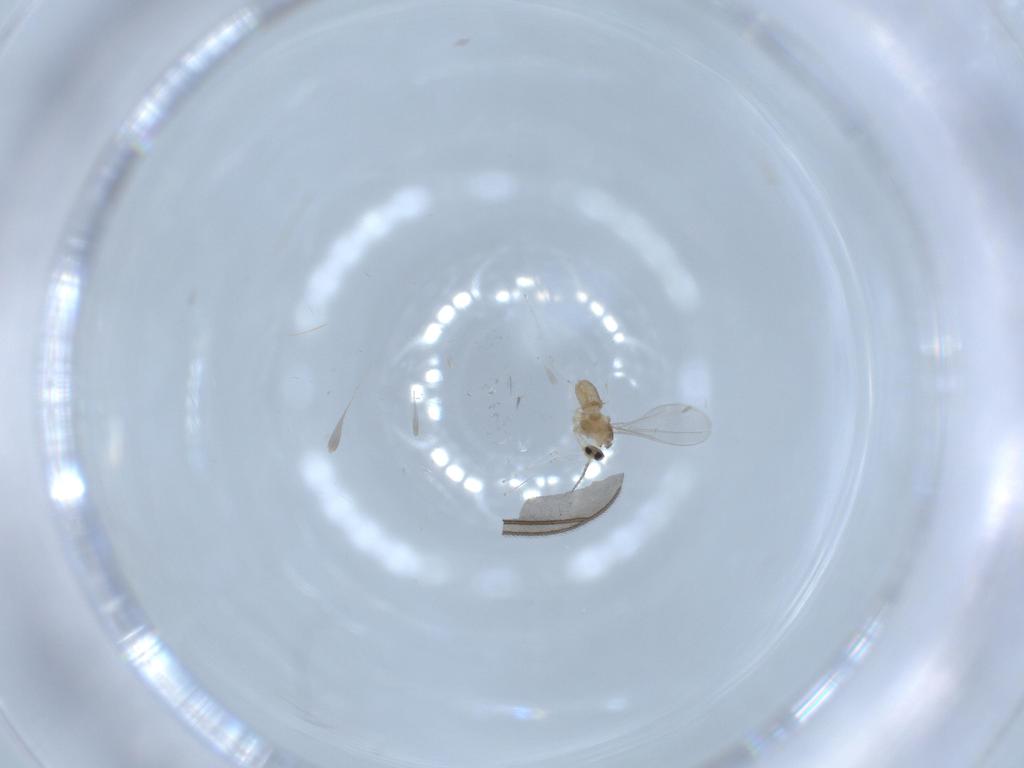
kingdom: Animalia
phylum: Arthropoda
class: Insecta
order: Diptera
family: Cecidomyiidae
